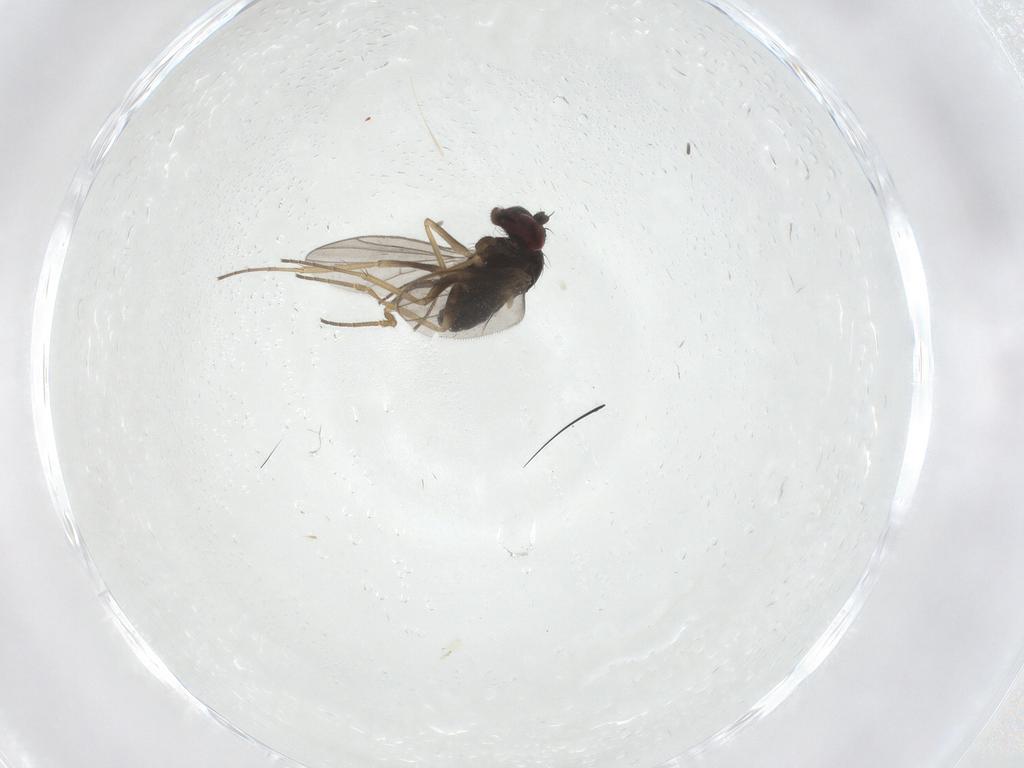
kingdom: Animalia
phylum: Arthropoda
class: Insecta
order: Diptera
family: Dolichopodidae
